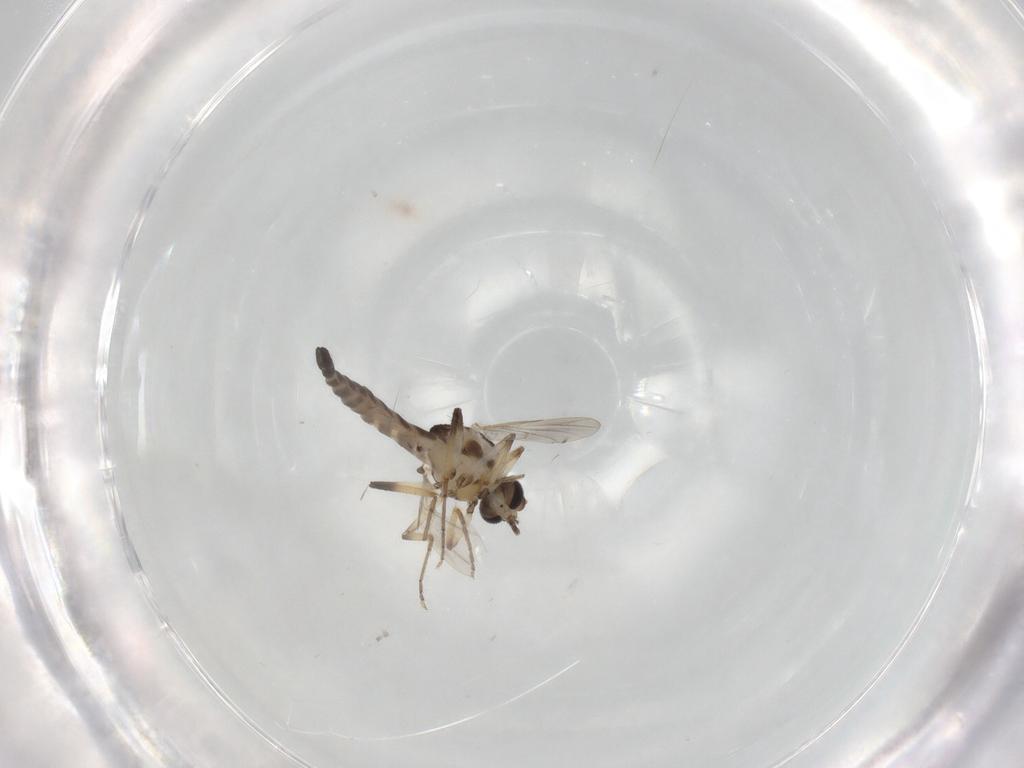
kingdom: Animalia
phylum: Arthropoda
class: Insecta
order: Diptera
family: Ceratopogonidae
